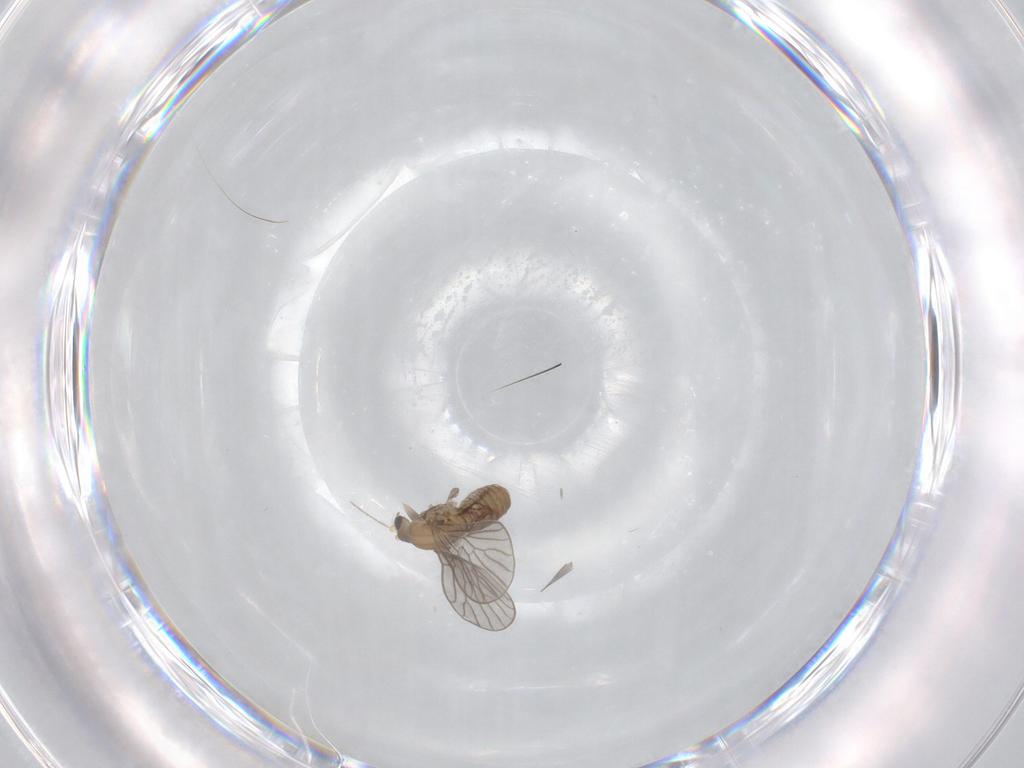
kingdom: Animalia
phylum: Arthropoda
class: Insecta
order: Diptera
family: Psychodidae
